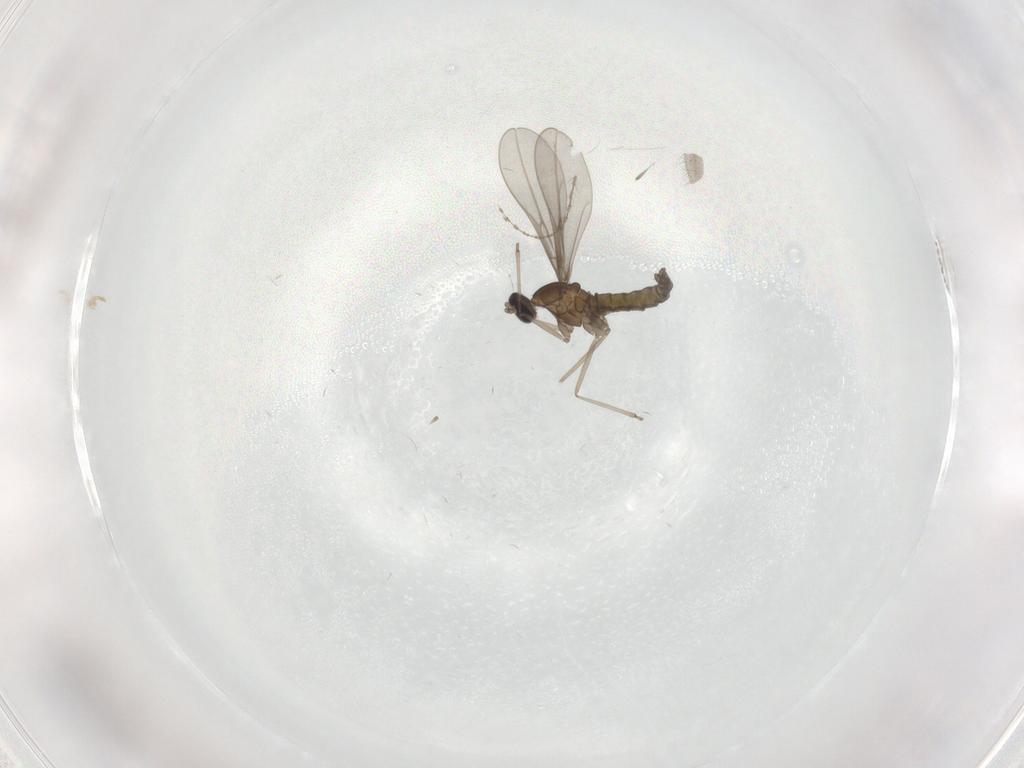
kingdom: Animalia
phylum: Arthropoda
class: Insecta
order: Diptera
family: Sciaridae
